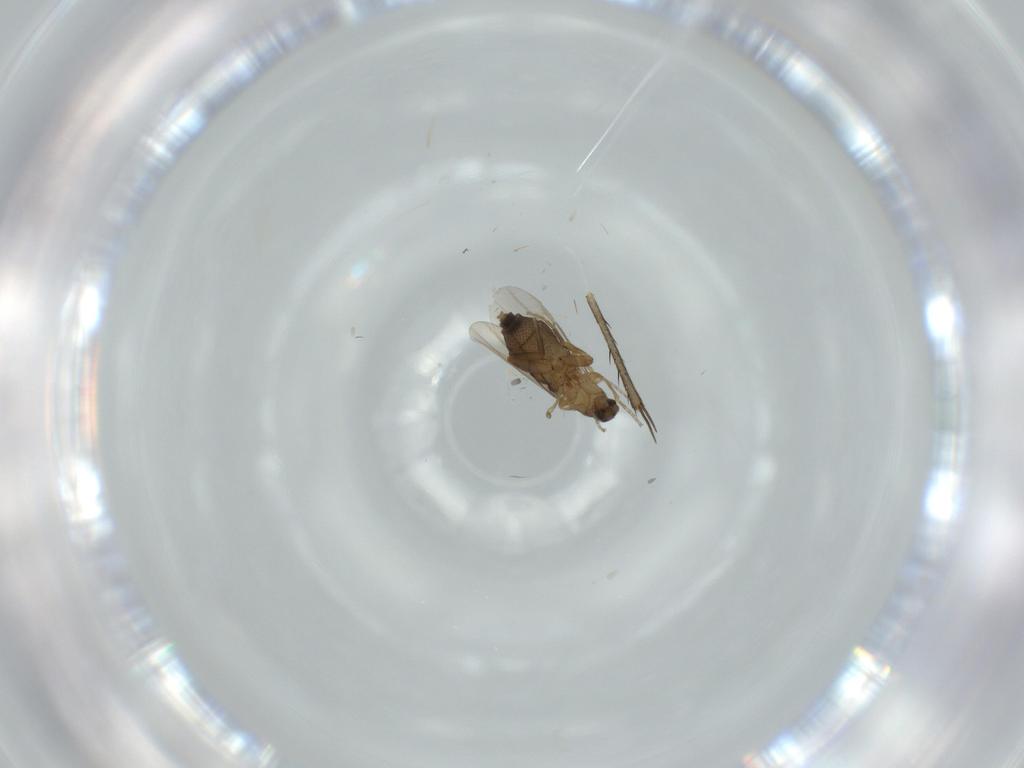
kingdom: Animalia
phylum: Arthropoda
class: Insecta
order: Diptera
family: Phoridae
